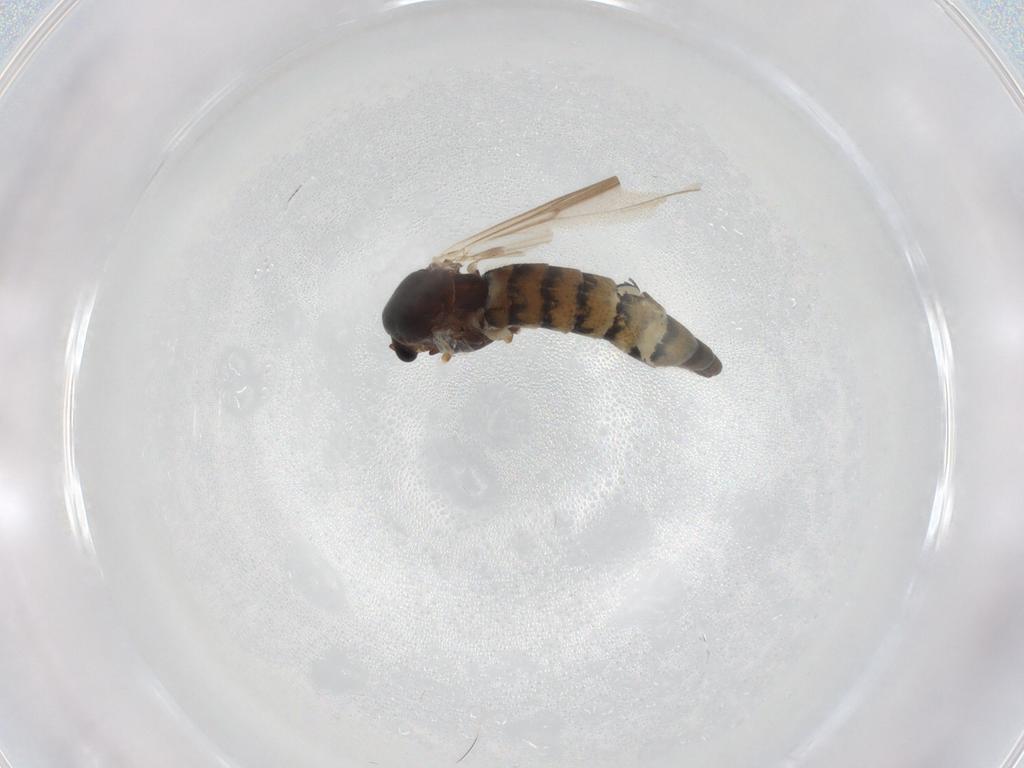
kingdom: Animalia
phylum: Arthropoda
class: Insecta
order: Diptera
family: Chironomidae
